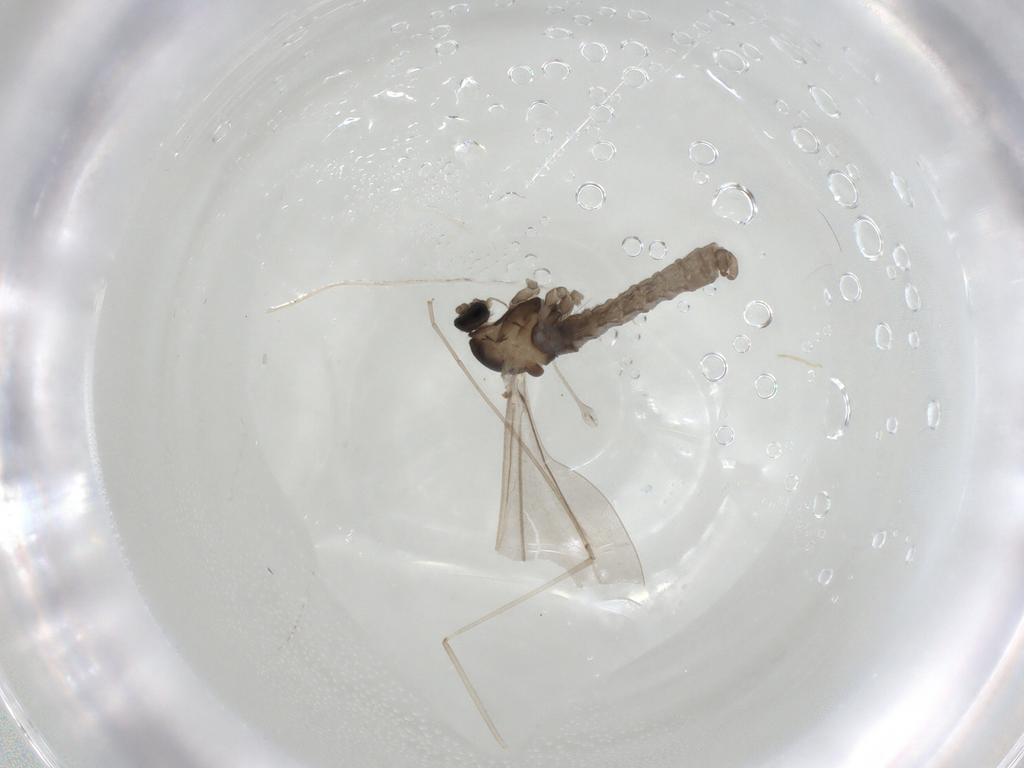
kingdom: Animalia
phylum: Arthropoda
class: Insecta
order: Diptera
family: Cecidomyiidae
